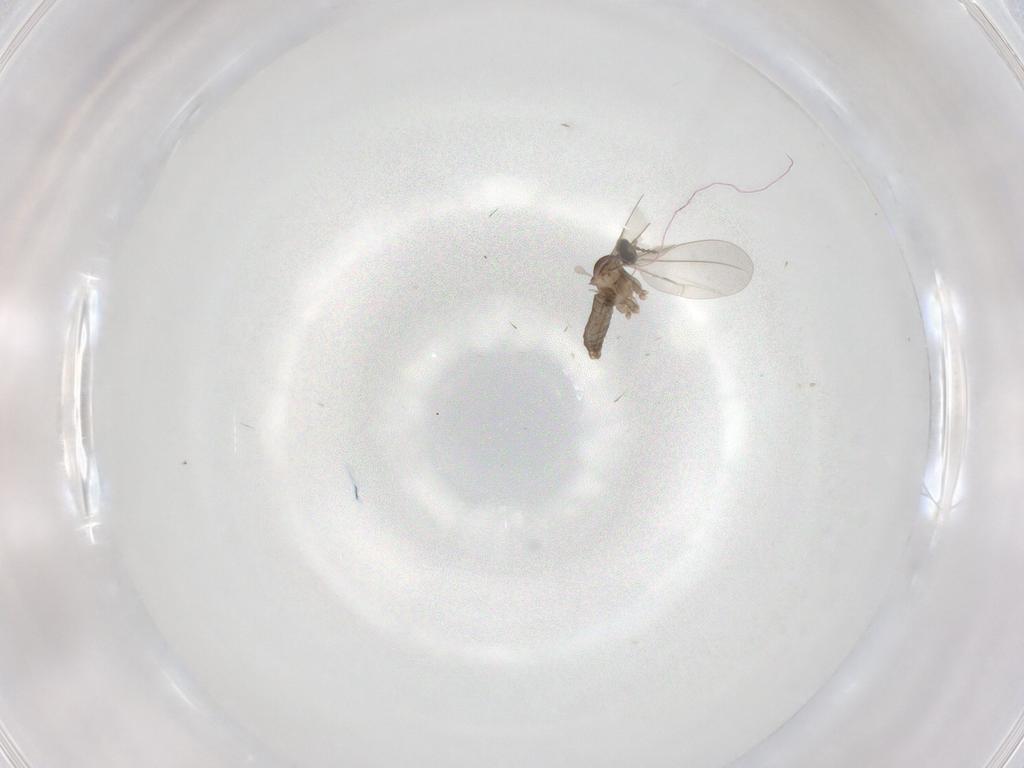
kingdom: Animalia
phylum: Arthropoda
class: Insecta
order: Diptera
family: Cecidomyiidae
